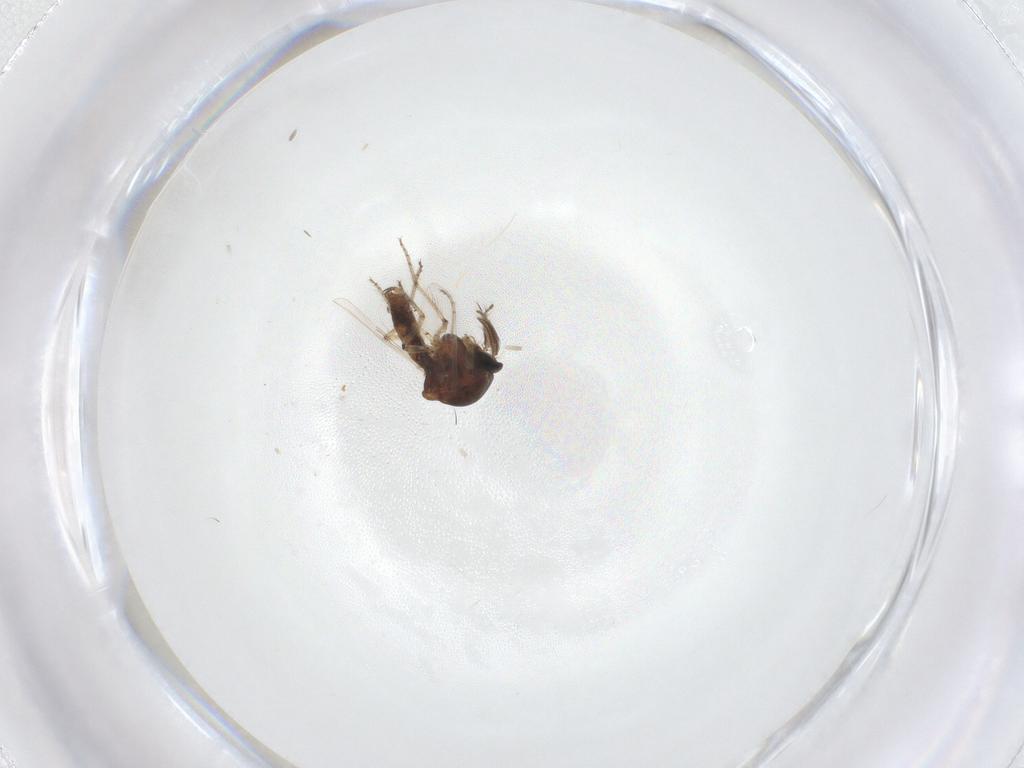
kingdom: Animalia
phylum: Arthropoda
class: Insecta
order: Diptera
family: Ceratopogonidae
